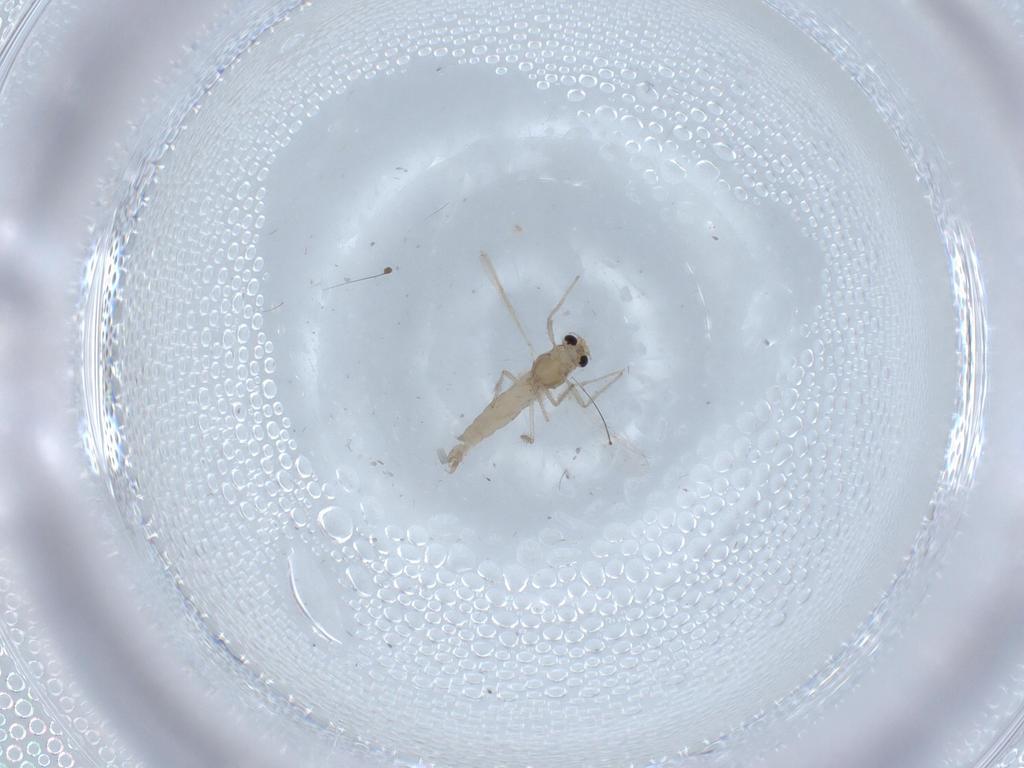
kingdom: Animalia
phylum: Arthropoda
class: Insecta
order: Diptera
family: Chironomidae
